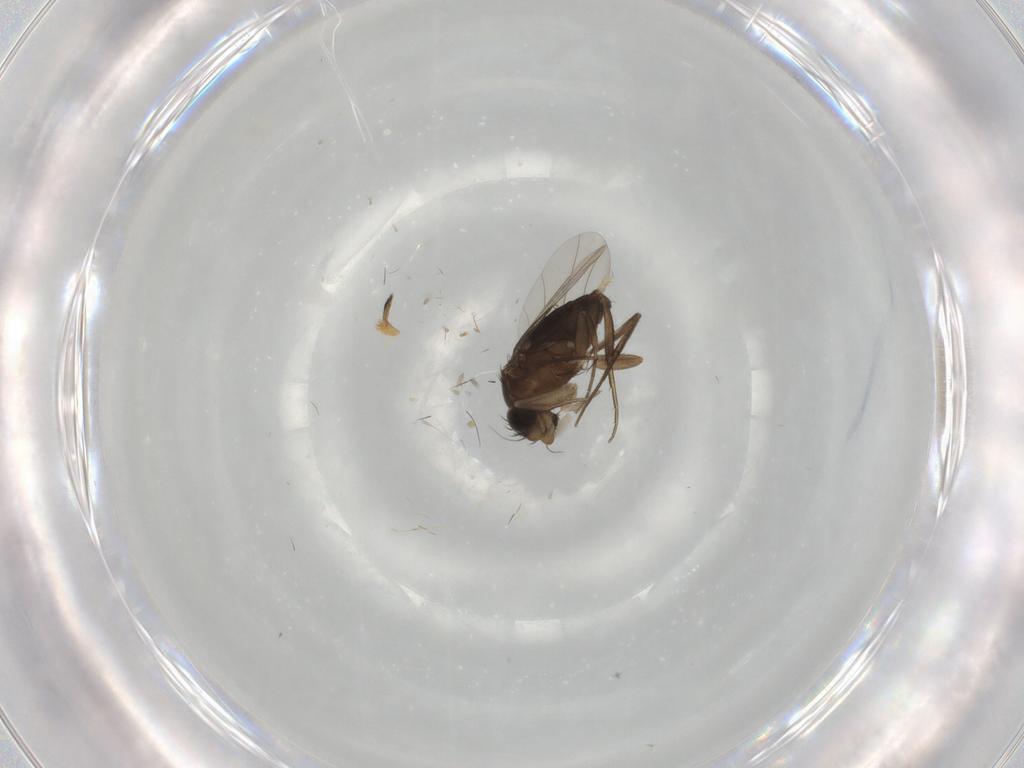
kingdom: Animalia
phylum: Arthropoda
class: Insecta
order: Diptera
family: Phoridae
